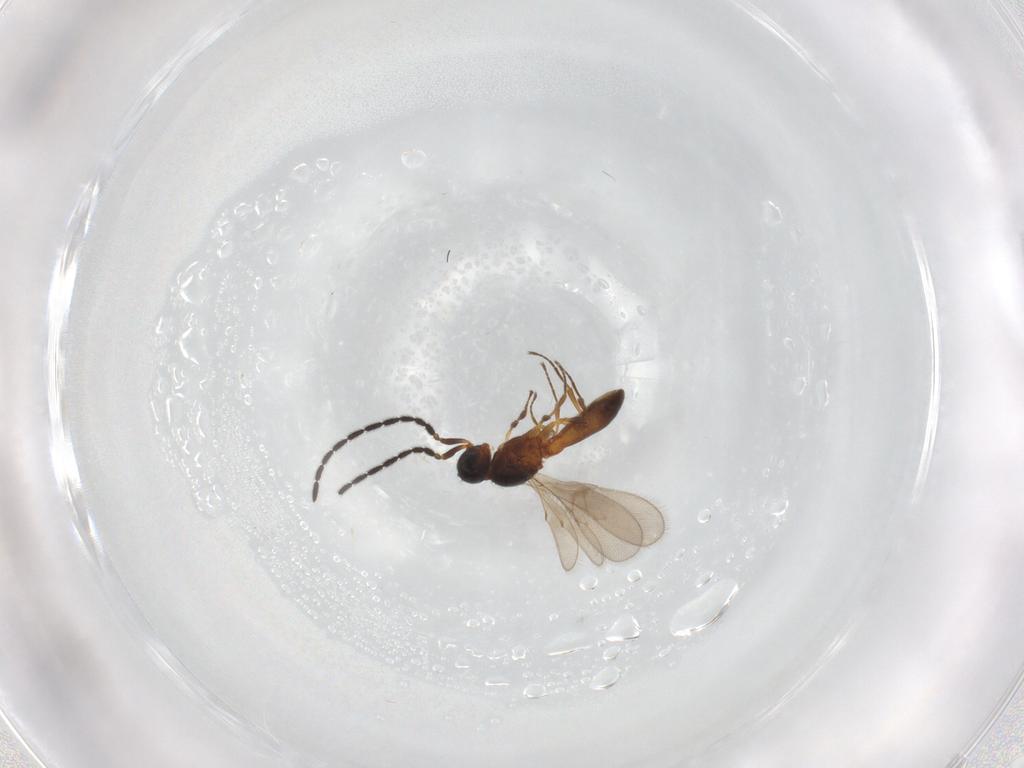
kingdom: Animalia
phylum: Arthropoda
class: Insecta
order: Hymenoptera
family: Scelionidae
